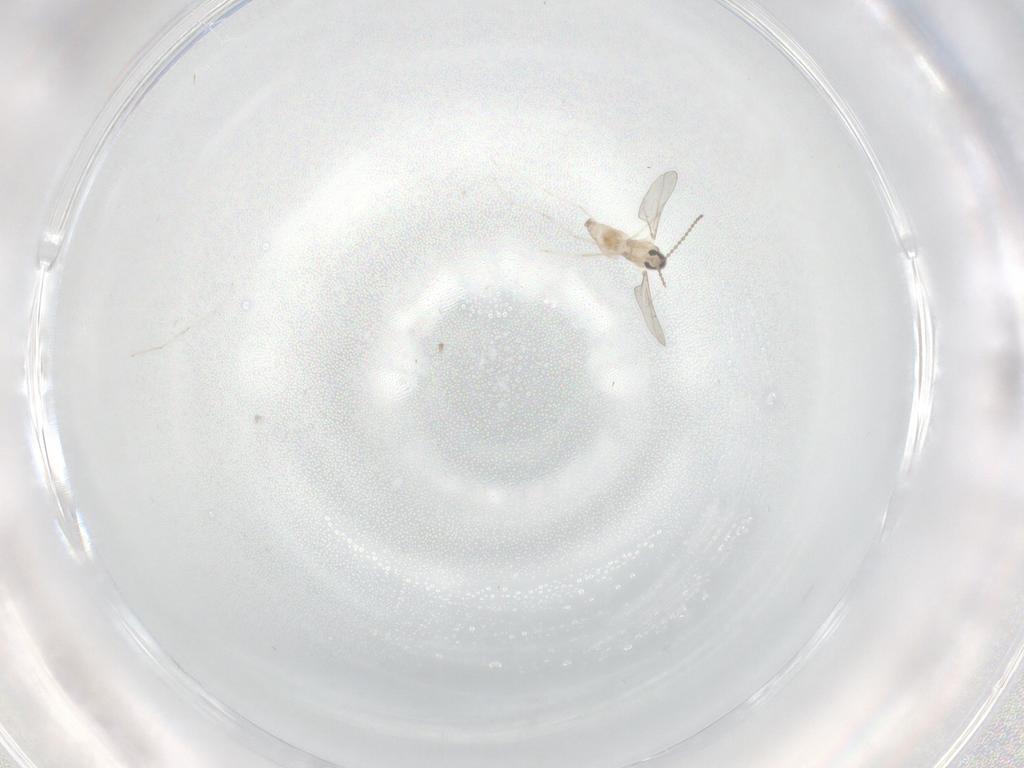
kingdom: Animalia
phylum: Arthropoda
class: Insecta
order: Diptera
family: Cecidomyiidae
